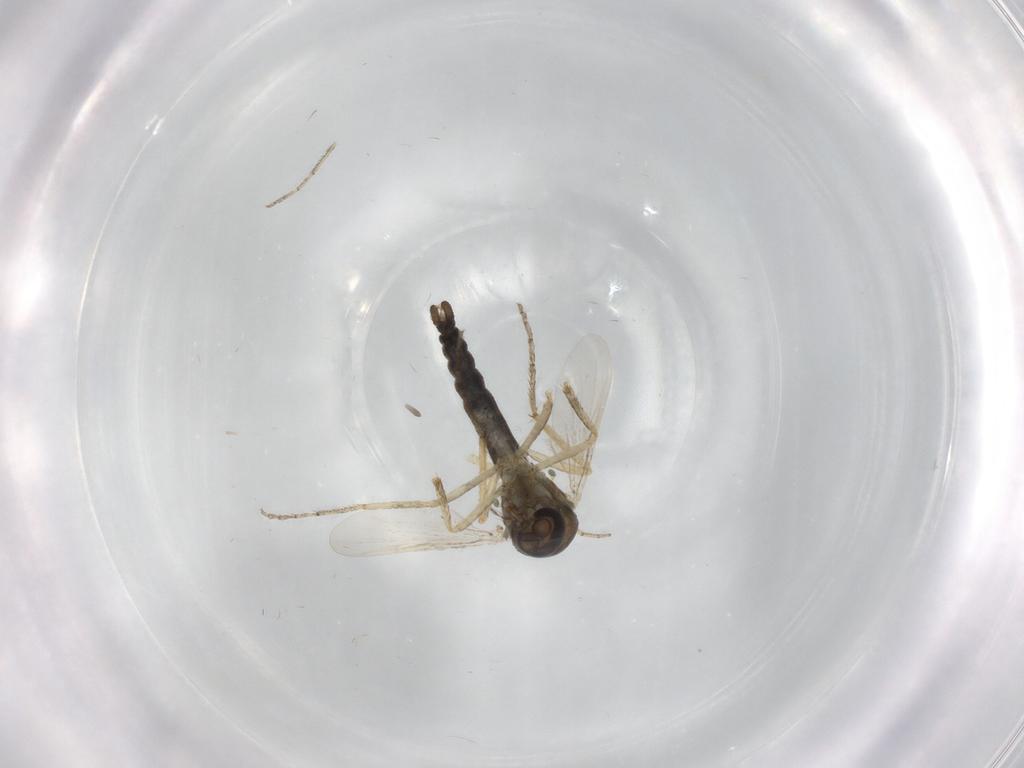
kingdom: Animalia
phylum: Arthropoda
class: Insecta
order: Diptera
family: Ceratopogonidae
